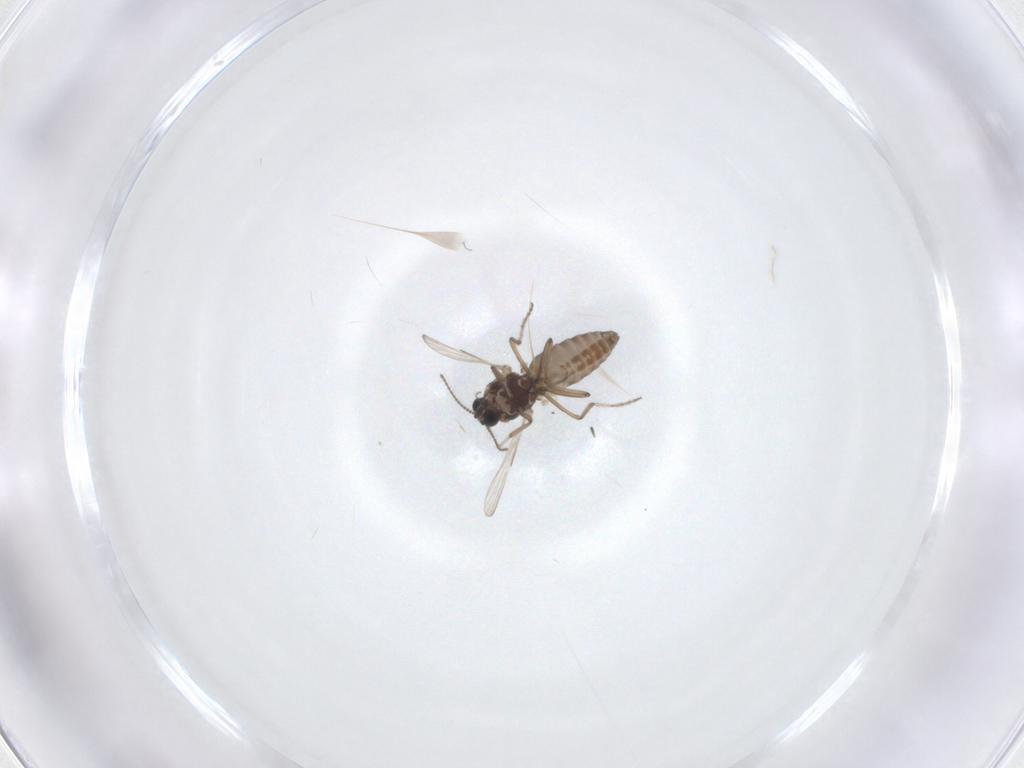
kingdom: Animalia
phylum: Arthropoda
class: Insecta
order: Diptera
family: Ceratopogonidae
